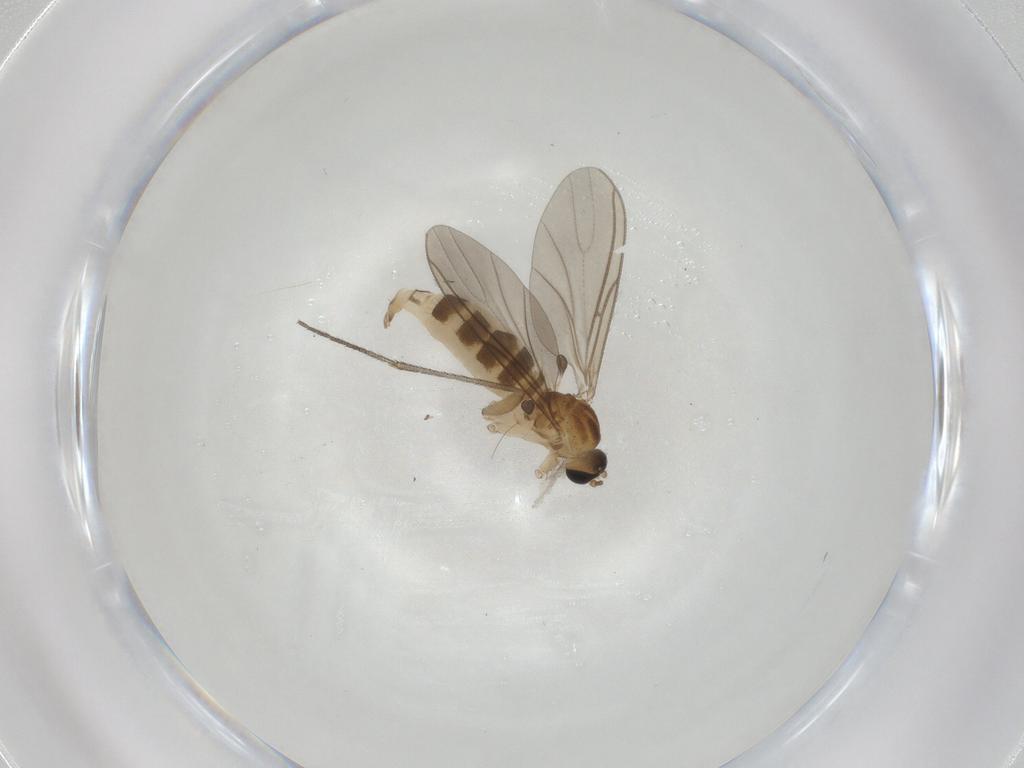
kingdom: Animalia
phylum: Arthropoda
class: Insecta
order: Diptera
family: Sciaridae
